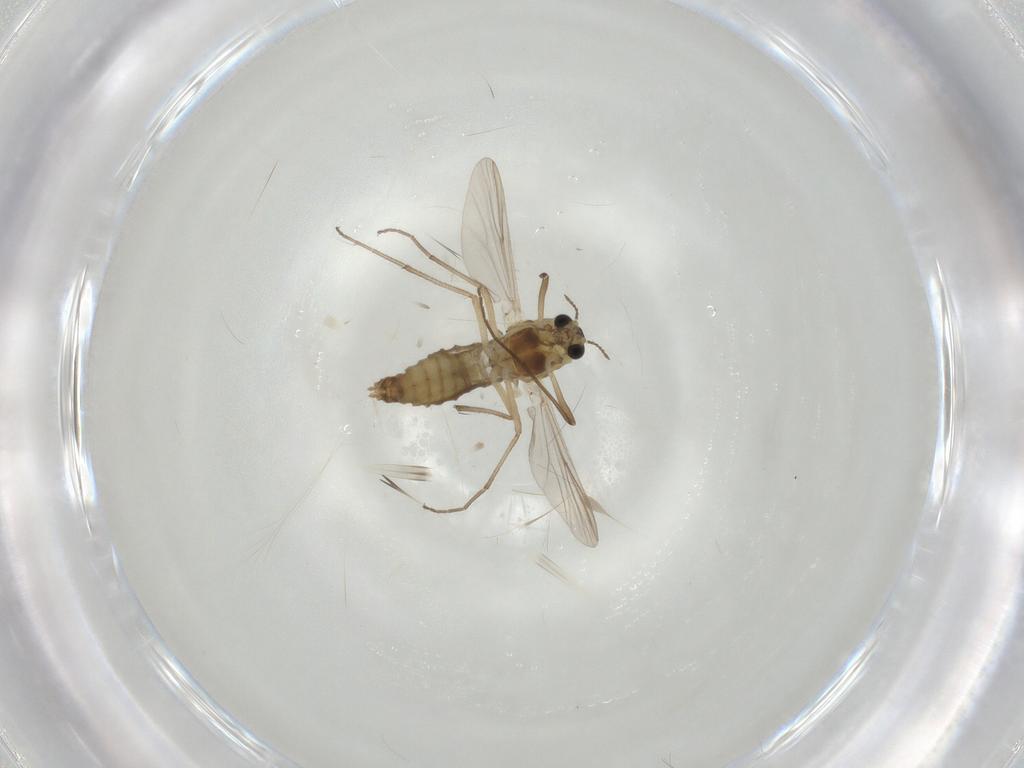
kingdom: Animalia
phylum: Arthropoda
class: Insecta
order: Diptera
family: Chironomidae
